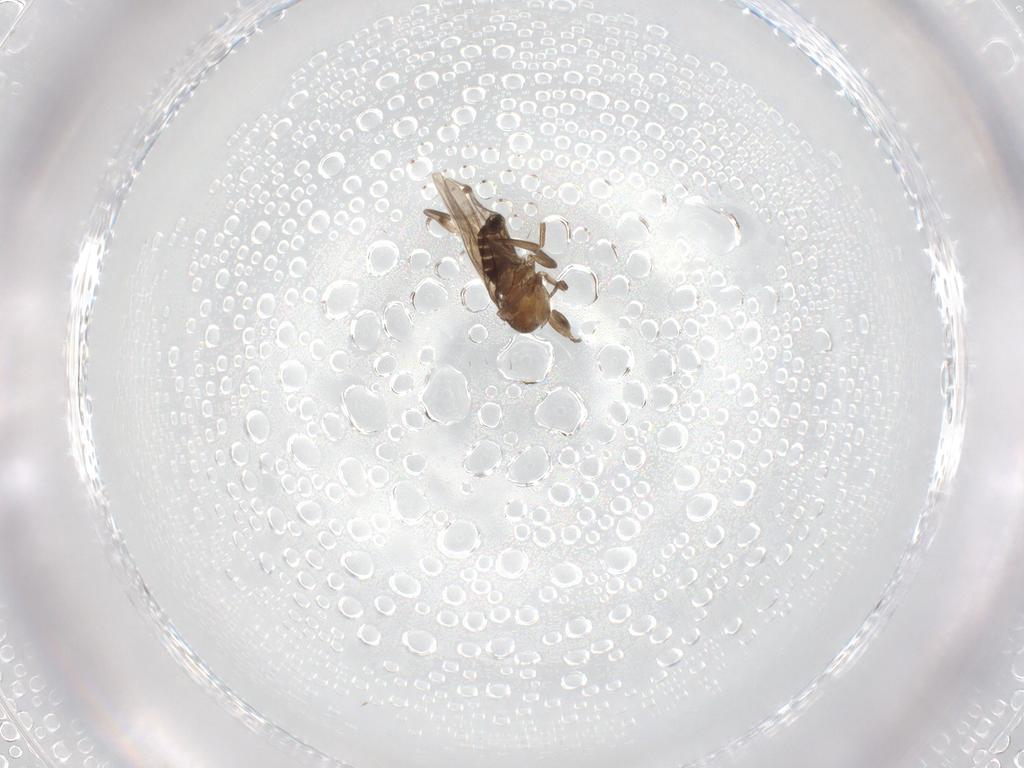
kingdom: Animalia
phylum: Arthropoda
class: Insecta
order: Diptera
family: Tabanidae
